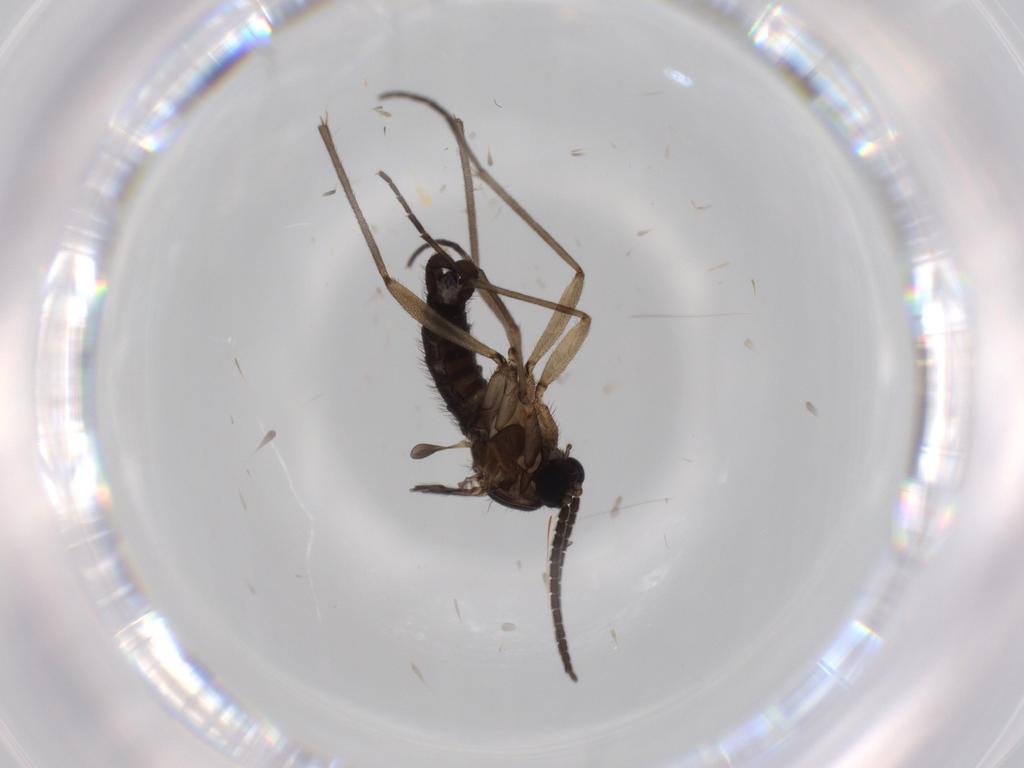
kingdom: Animalia
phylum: Arthropoda
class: Insecta
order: Diptera
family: Sciaridae
